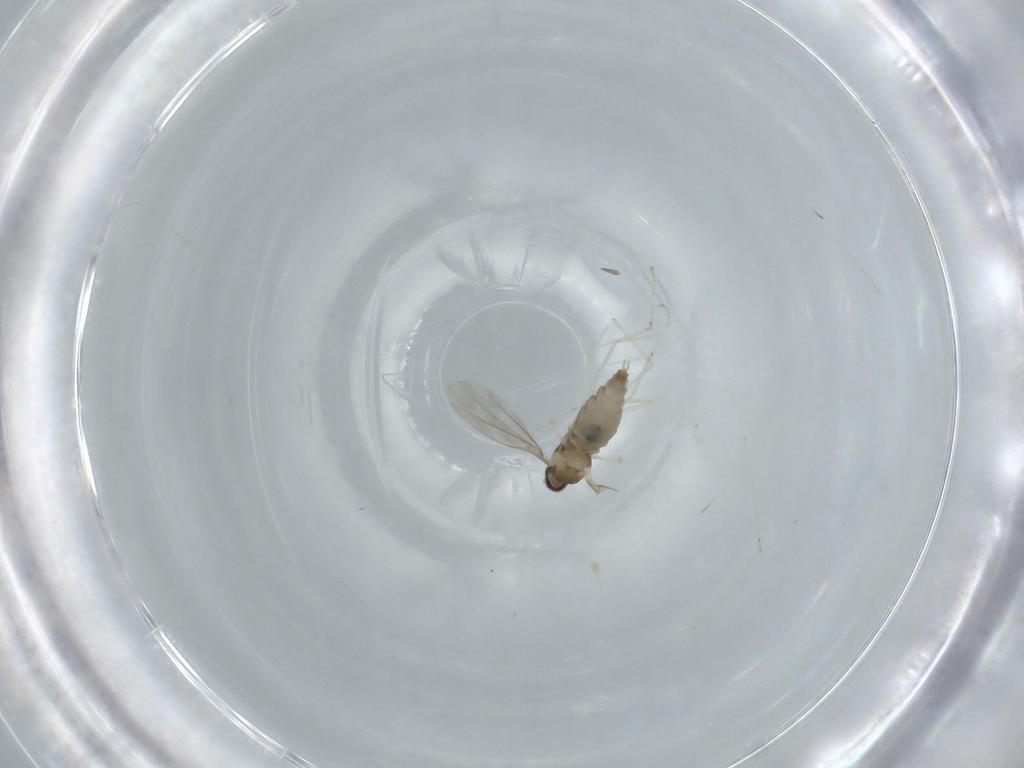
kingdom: Animalia
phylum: Arthropoda
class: Insecta
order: Diptera
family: Cecidomyiidae
